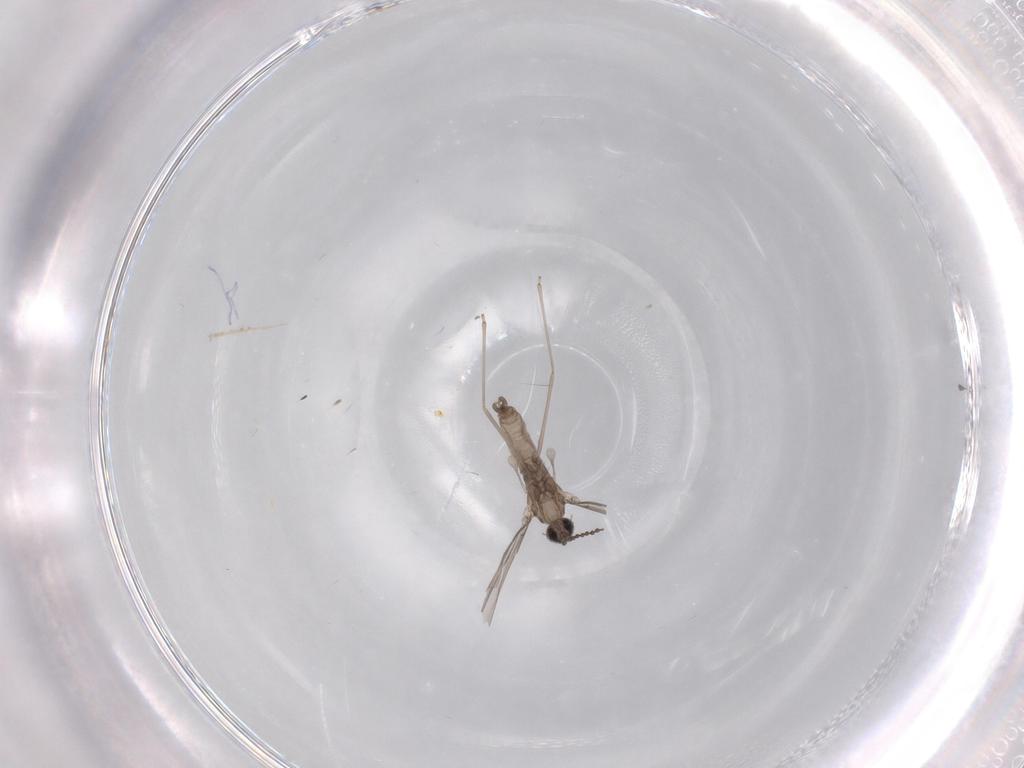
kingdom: Animalia
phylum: Arthropoda
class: Insecta
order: Diptera
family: Cecidomyiidae
